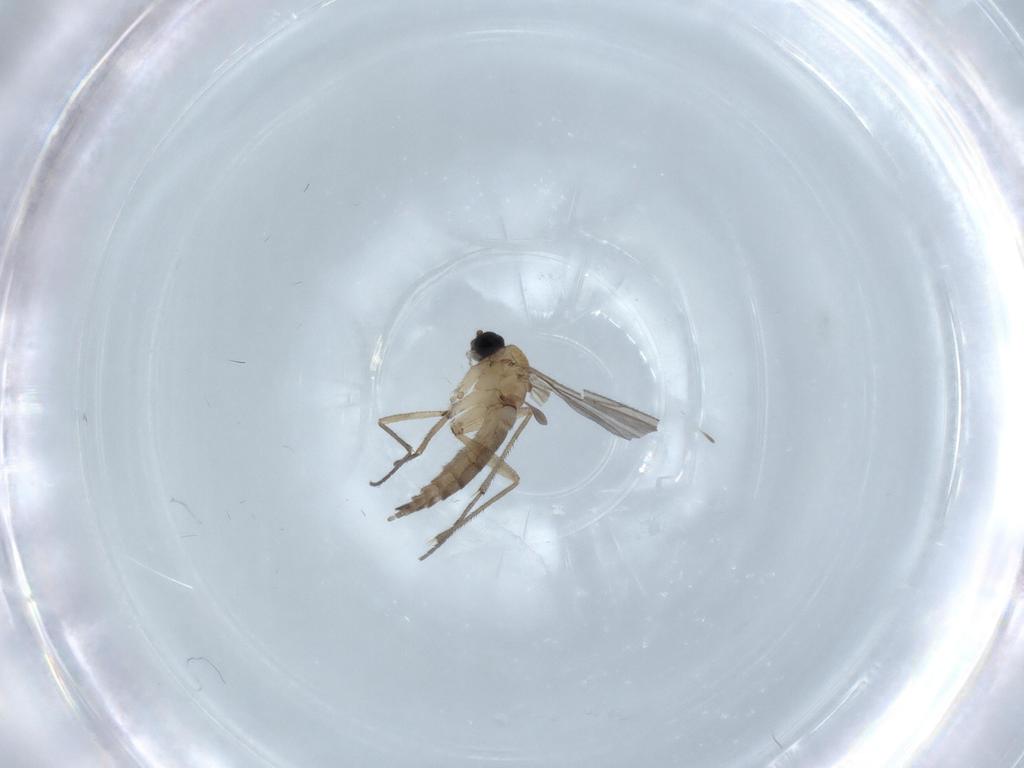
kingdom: Animalia
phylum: Arthropoda
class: Insecta
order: Diptera
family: Sciaridae
